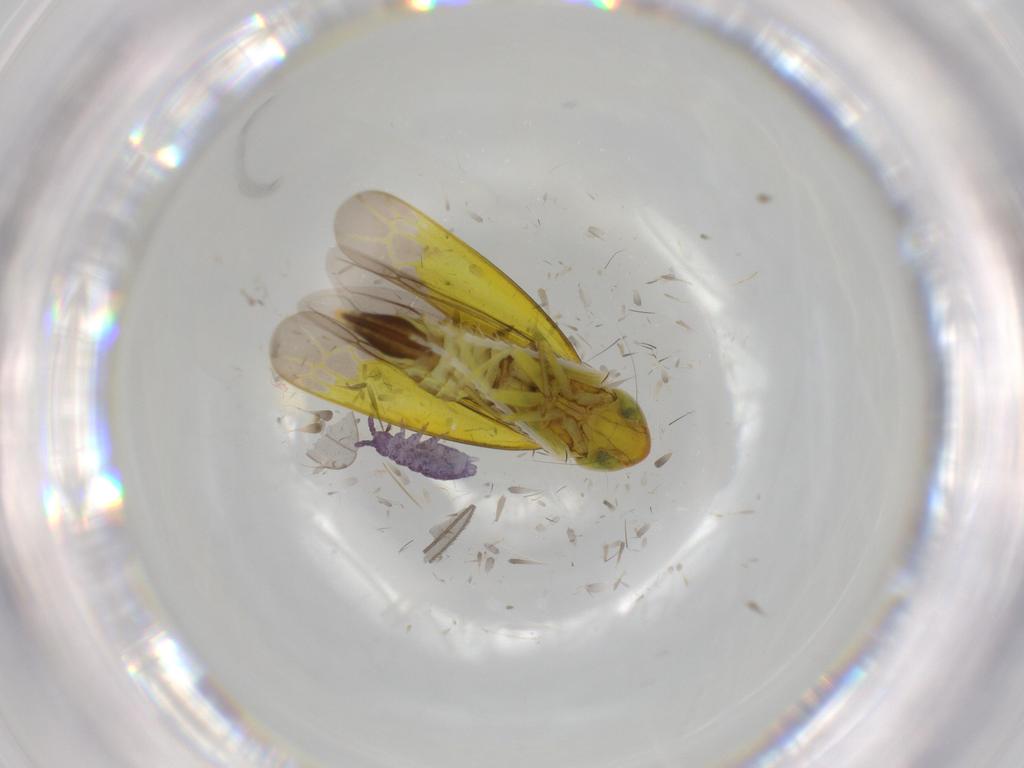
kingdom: Animalia
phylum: Arthropoda
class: Insecta
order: Hemiptera
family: Cicadellidae
